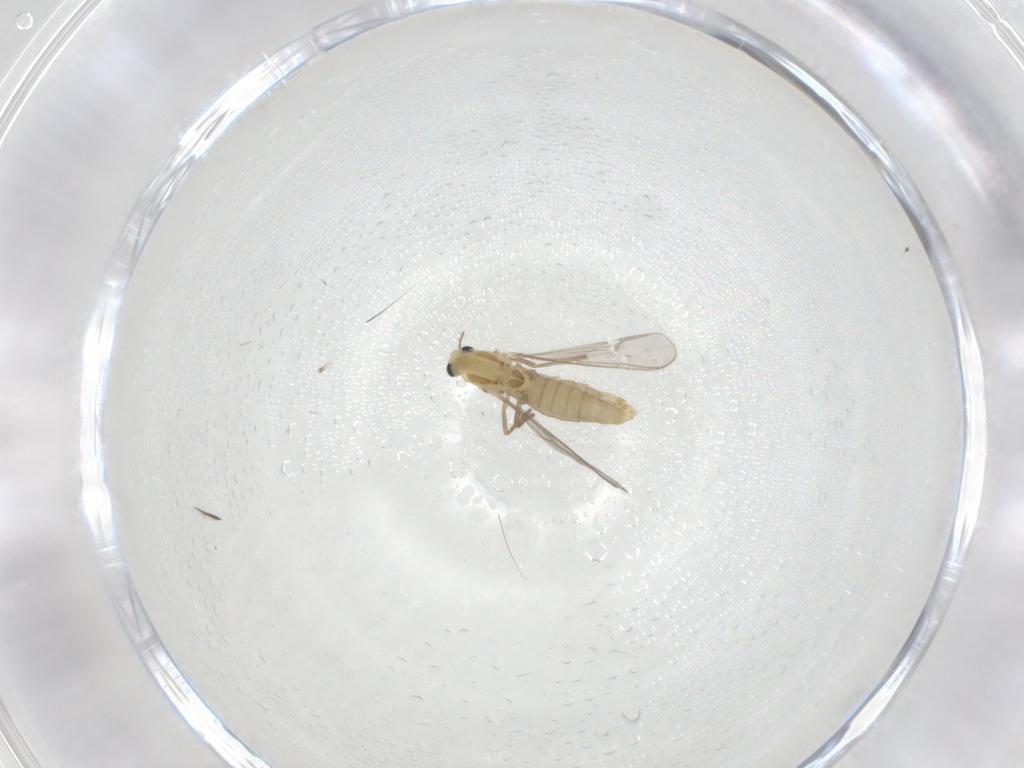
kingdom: Animalia
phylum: Arthropoda
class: Insecta
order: Diptera
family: Chironomidae
